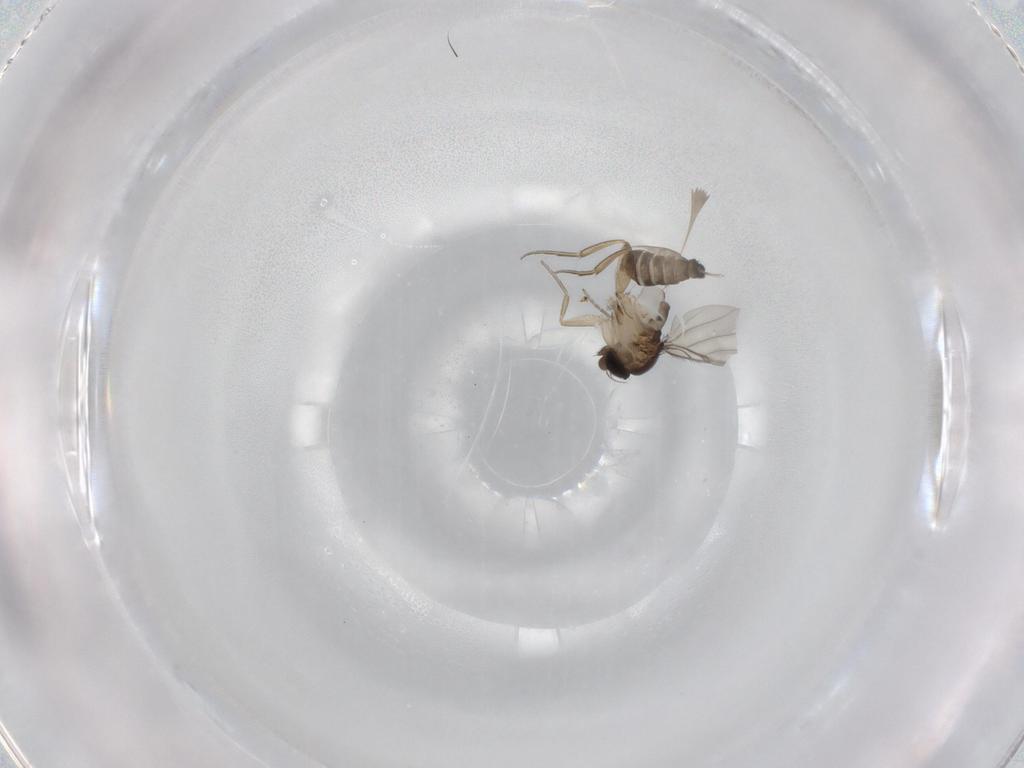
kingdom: Animalia
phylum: Arthropoda
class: Insecta
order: Diptera
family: Phoridae
